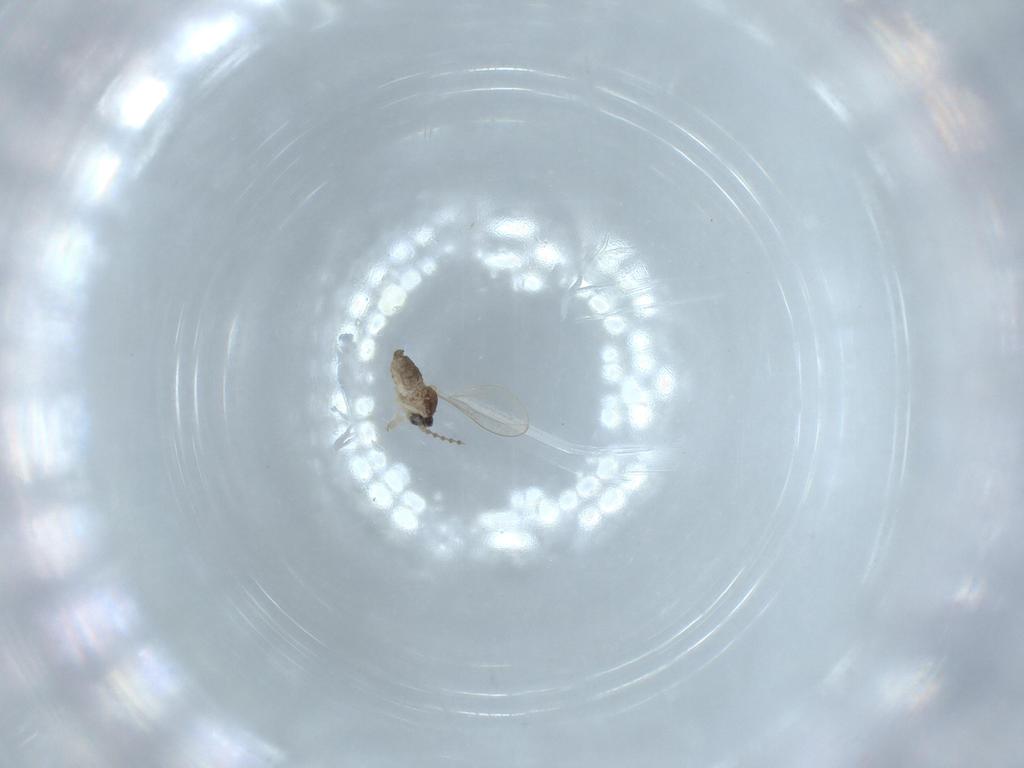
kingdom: Animalia
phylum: Arthropoda
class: Insecta
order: Diptera
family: Cecidomyiidae
